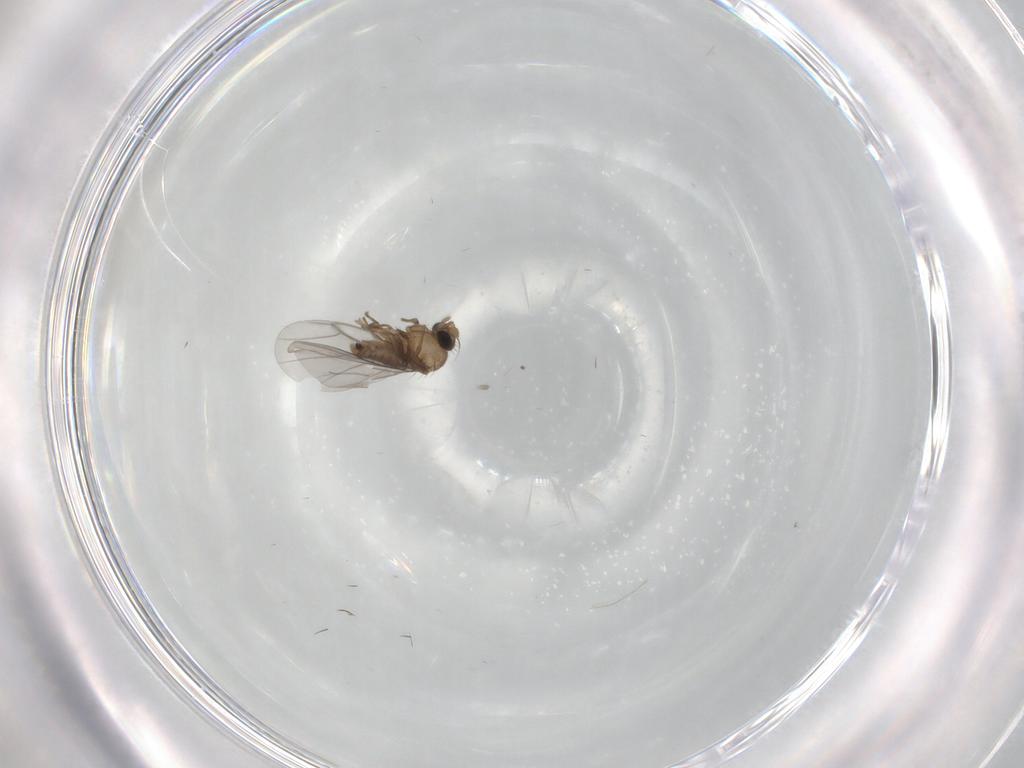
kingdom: Animalia
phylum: Arthropoda
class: Insecta
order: Diptera
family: Dolichopodidae
